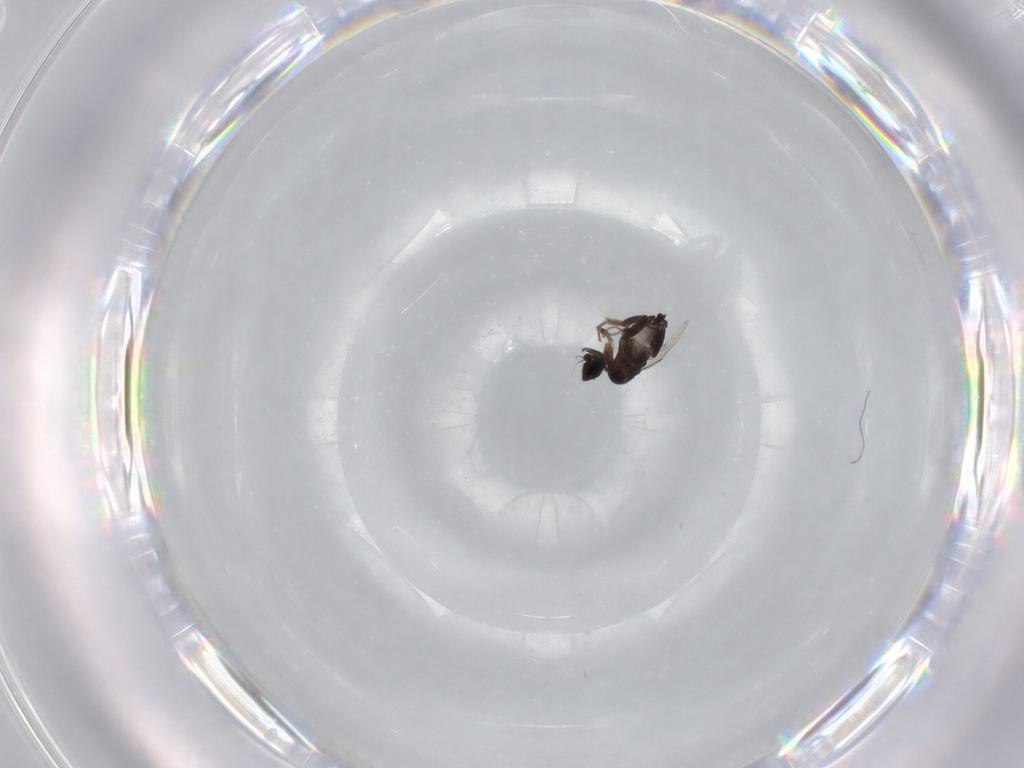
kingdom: Animalia
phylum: Arthropoda
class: Insecta
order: Diptera
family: Phoridae
